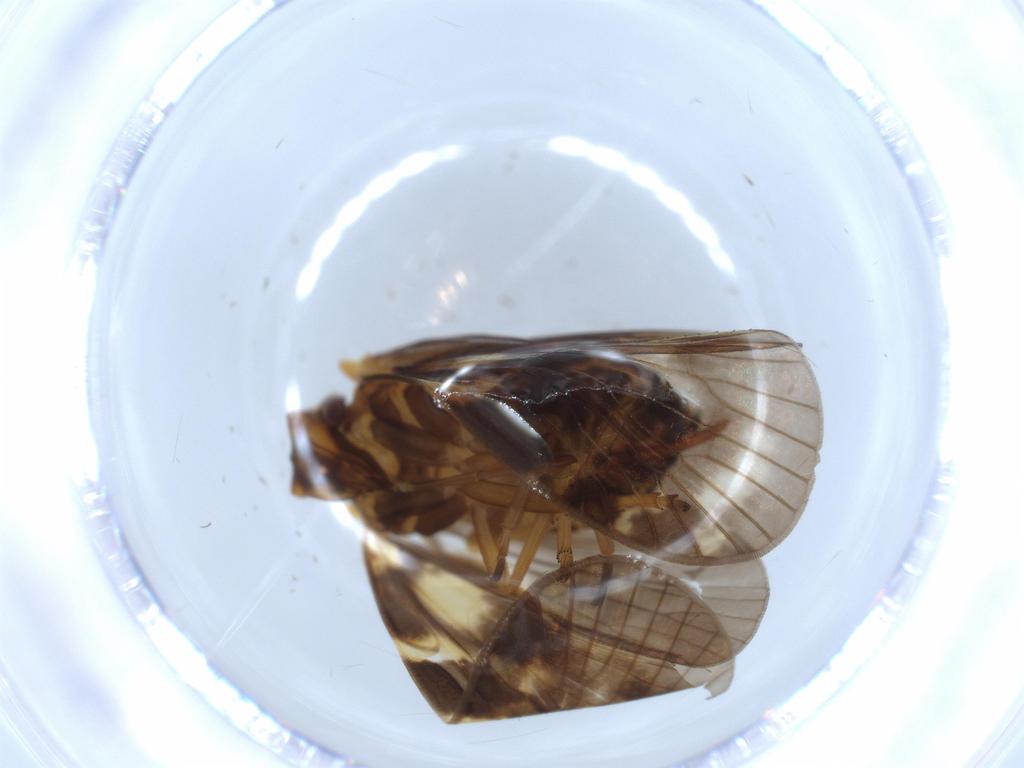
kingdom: Animalia
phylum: Arthropoda
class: Insecta
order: Hemiptera
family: Cixiidae
